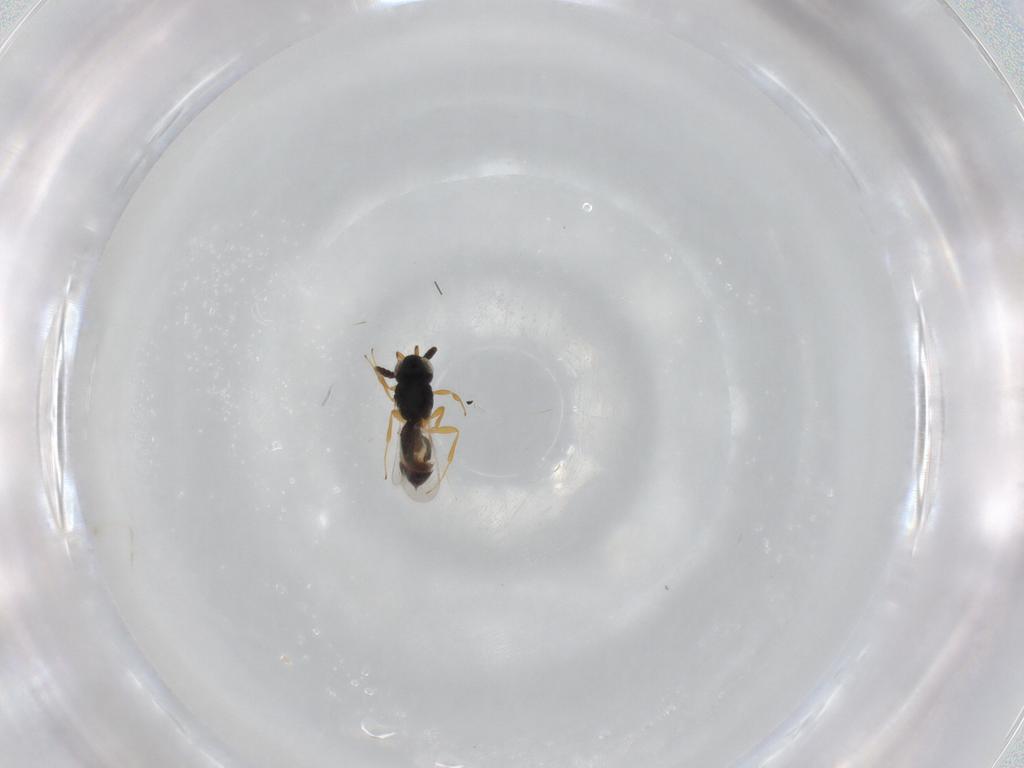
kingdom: Animalia
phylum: Arthropoda
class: Insecta
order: Hymenoptera
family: Scelionidae
